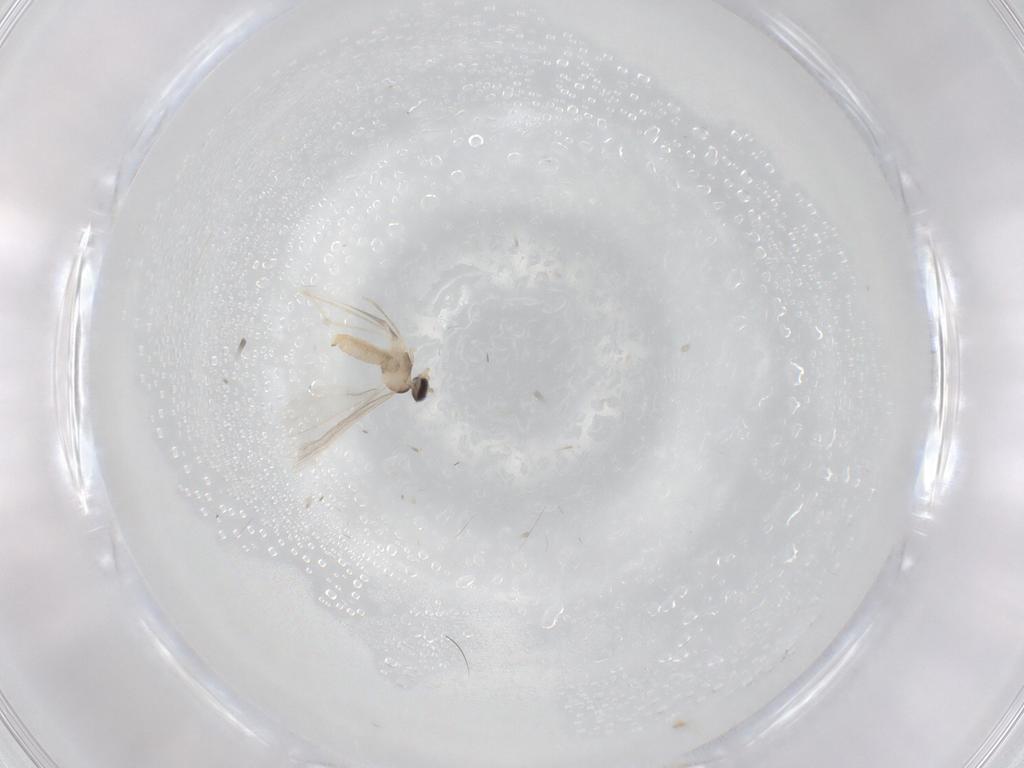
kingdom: Animalia
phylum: Arthropoda
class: Insecta
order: Diptera
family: Cecidomyiidae
